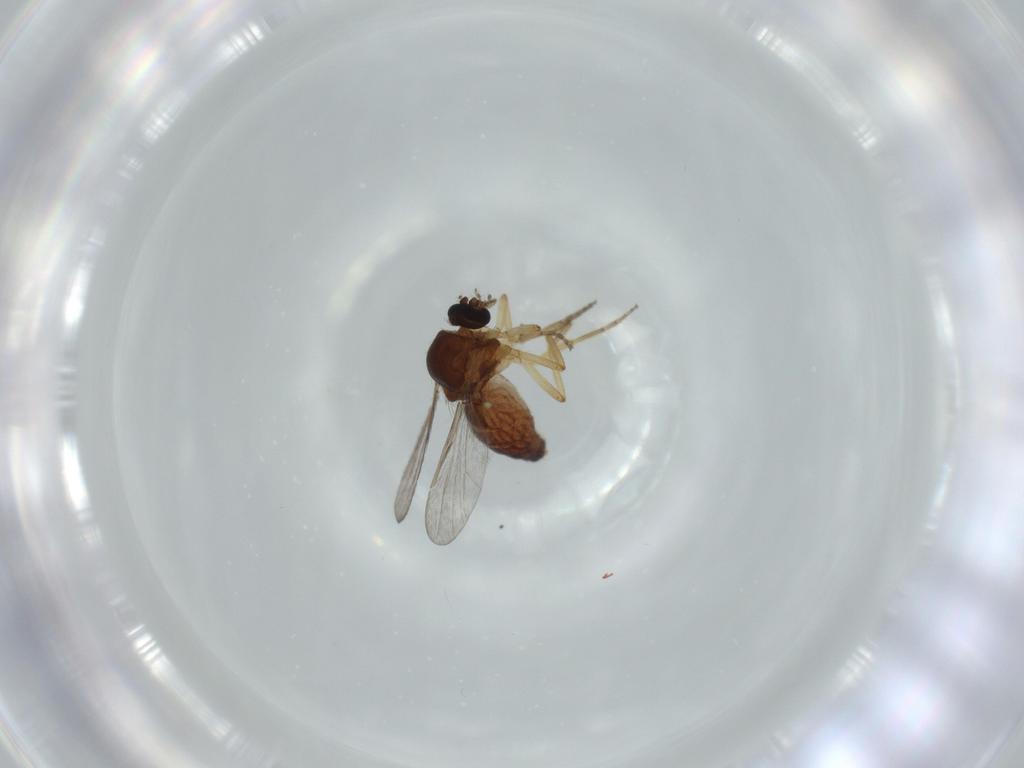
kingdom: Animalia
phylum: Arthropoda
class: Insecta
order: Diptera
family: Ceratopogonidae
